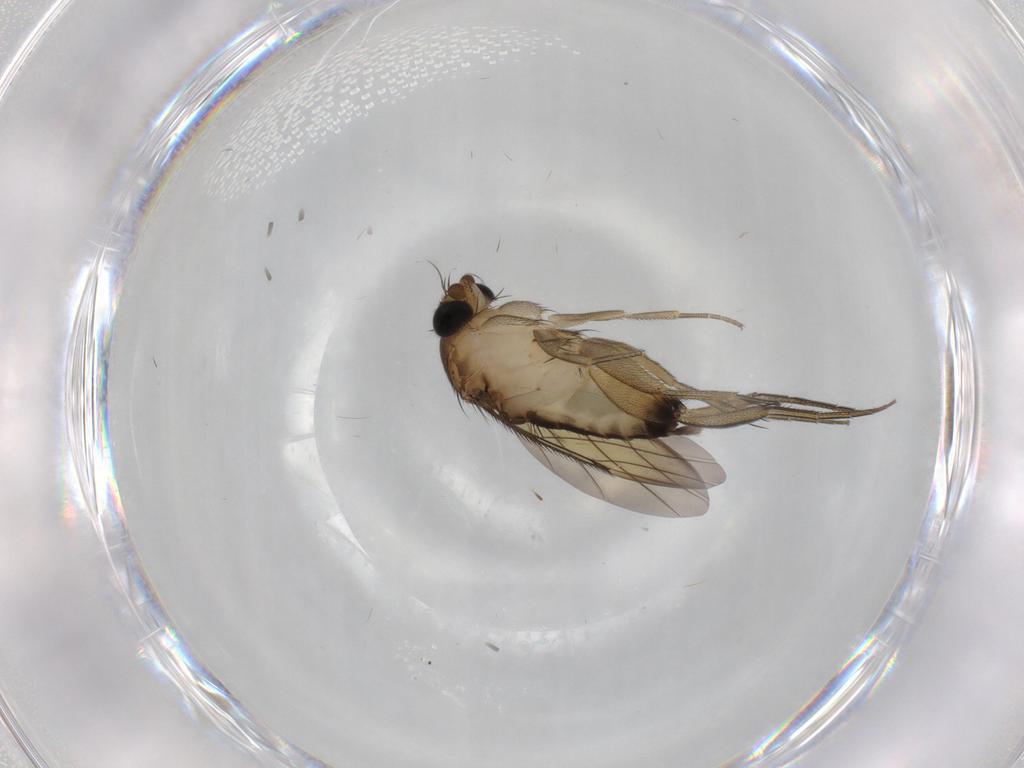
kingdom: Animalia
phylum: Arthropoda
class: Insecta
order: Diptera
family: Phoridae
